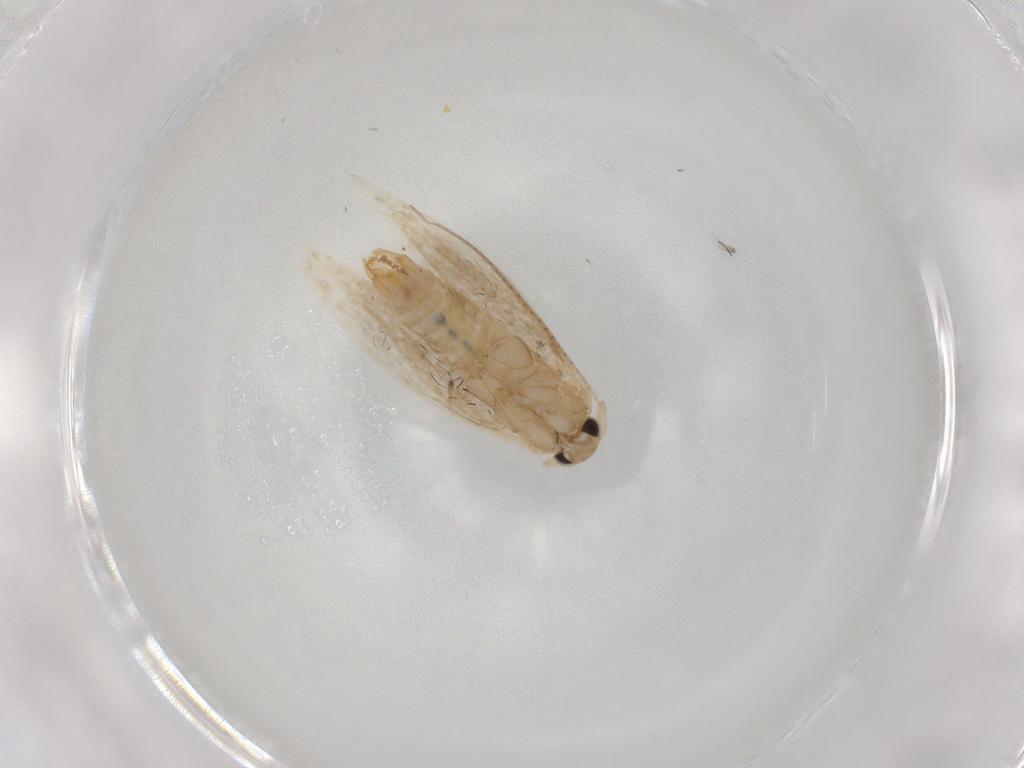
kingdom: Animalia
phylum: Arthropoda
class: Insecta
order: Lepidoptera
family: Bucculatricidae
